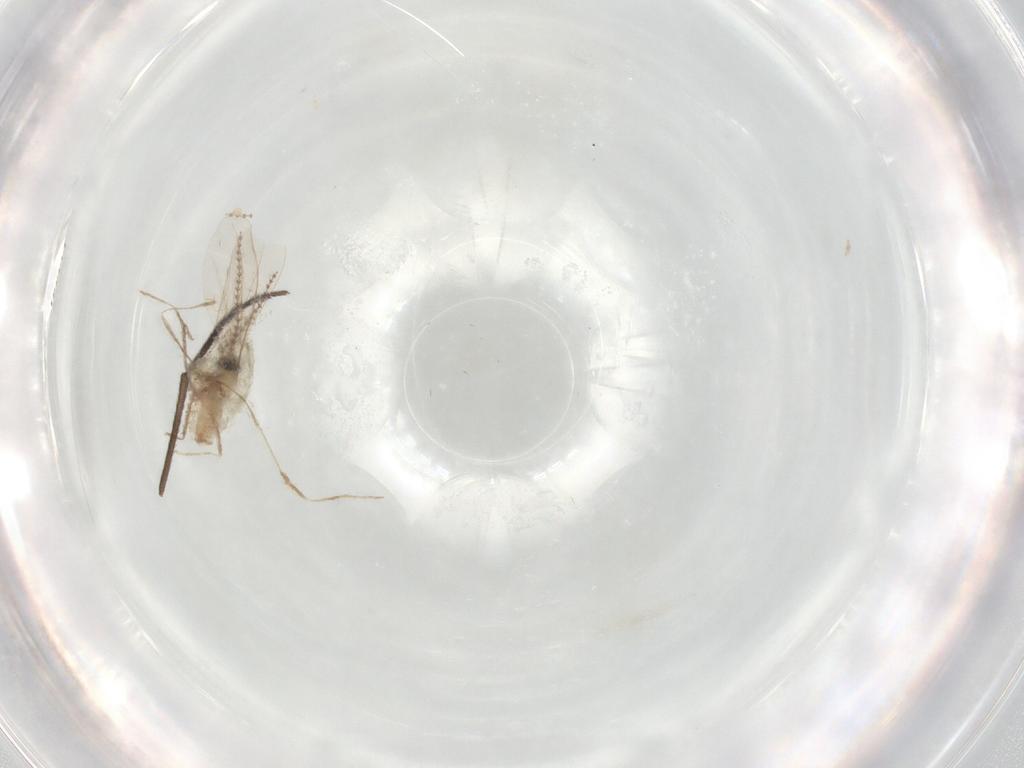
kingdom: Animalia
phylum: Arthropoda
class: Insecta
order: Diptera
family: Cecidomyiidae
